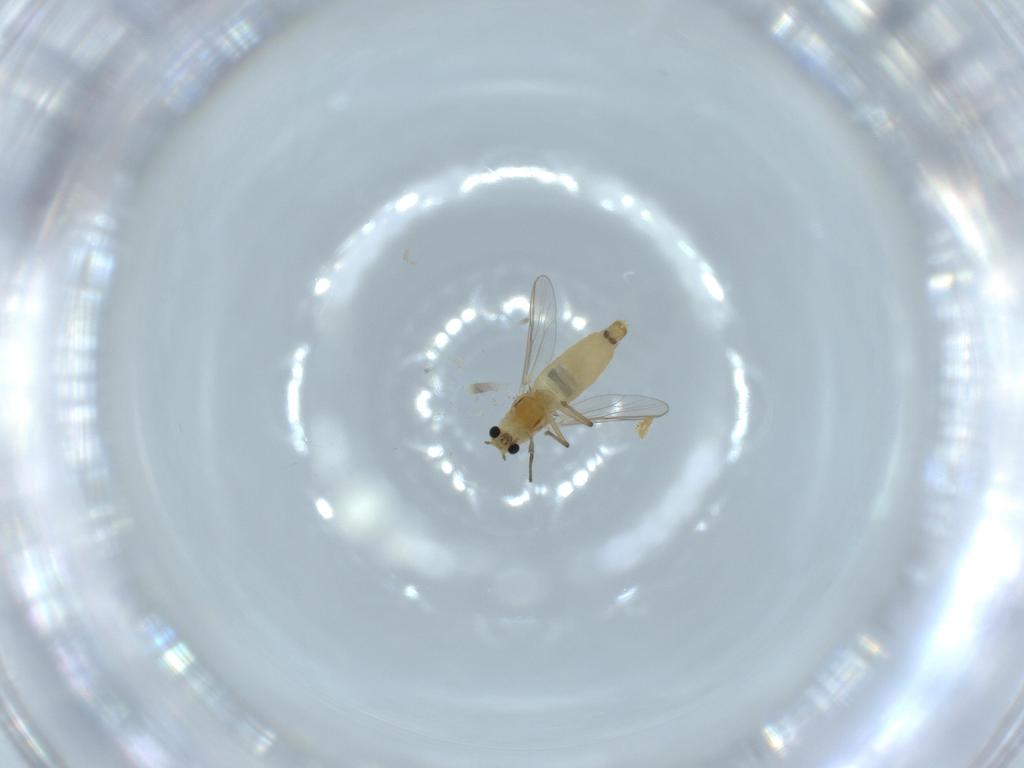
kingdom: Animalia
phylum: Arthropoda
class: Insecta
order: Diptera
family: Chironomidae
